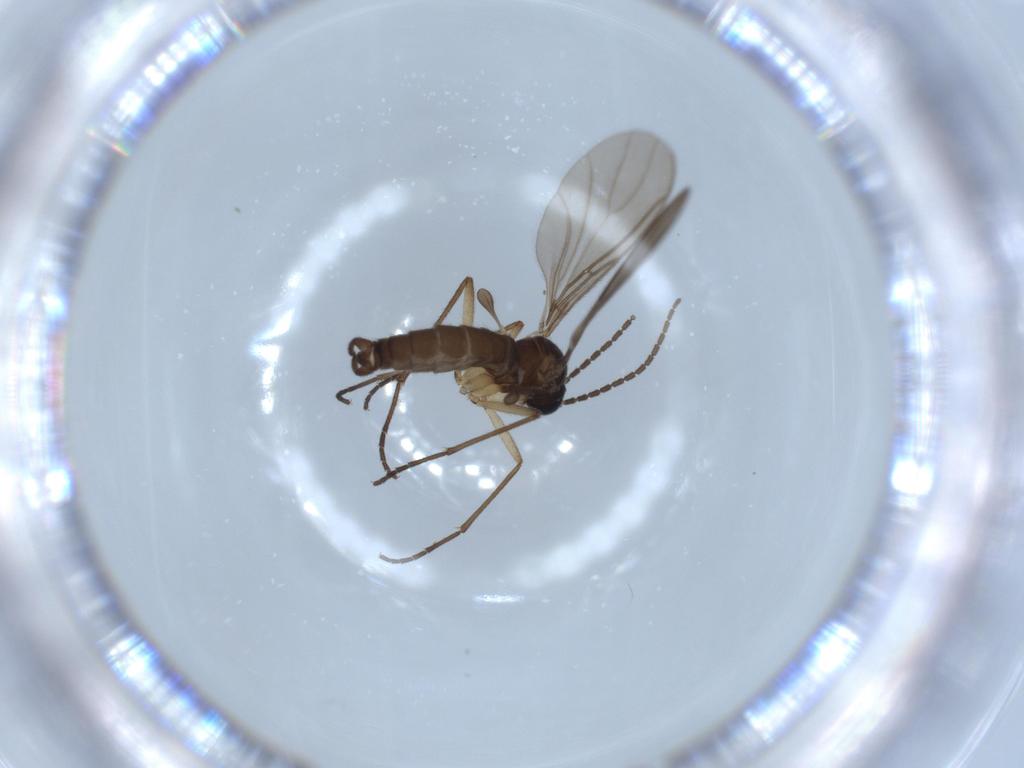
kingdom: Animalia
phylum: Arthropoda
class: Insecta
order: Diptera
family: Sciaridae
